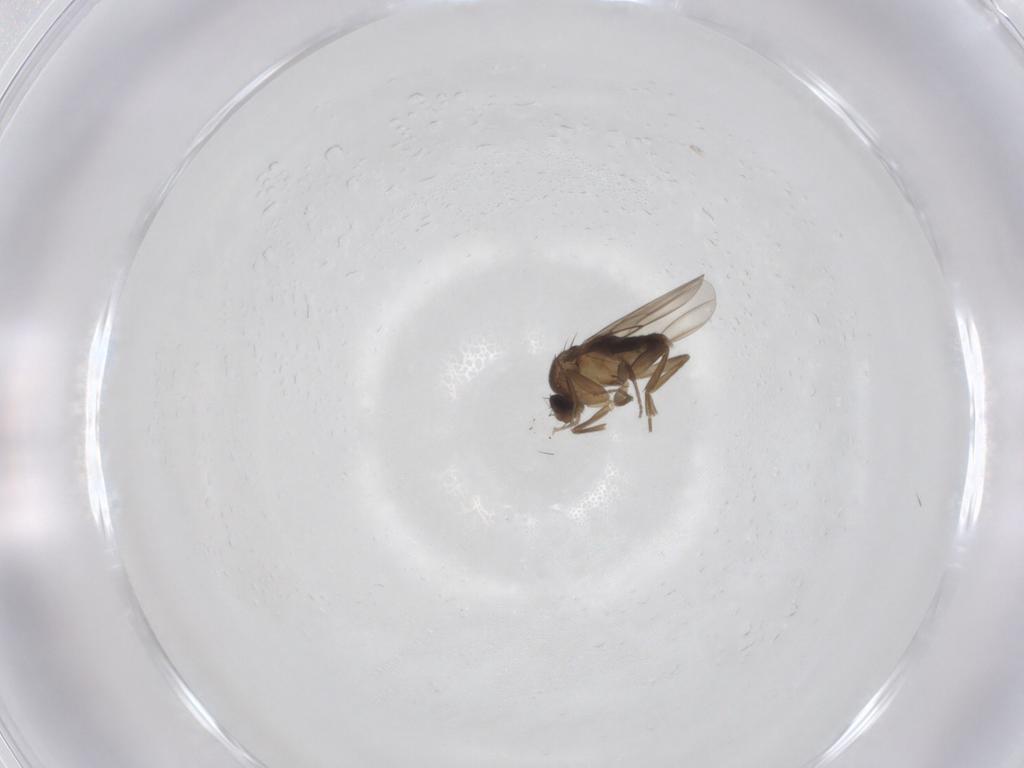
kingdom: Animalia
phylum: Arthropoda
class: Insecta
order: Diptera
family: Phoridae
